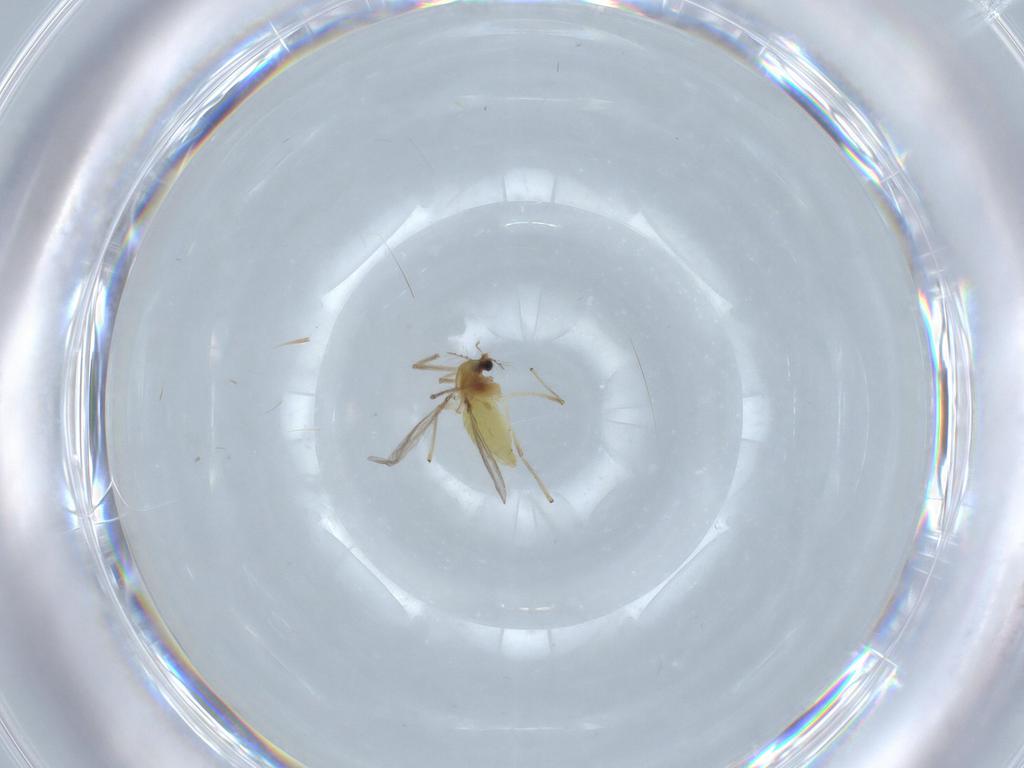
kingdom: Animalia
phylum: Arthropoda
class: Insecta
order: Diptera
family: Chironomidae
